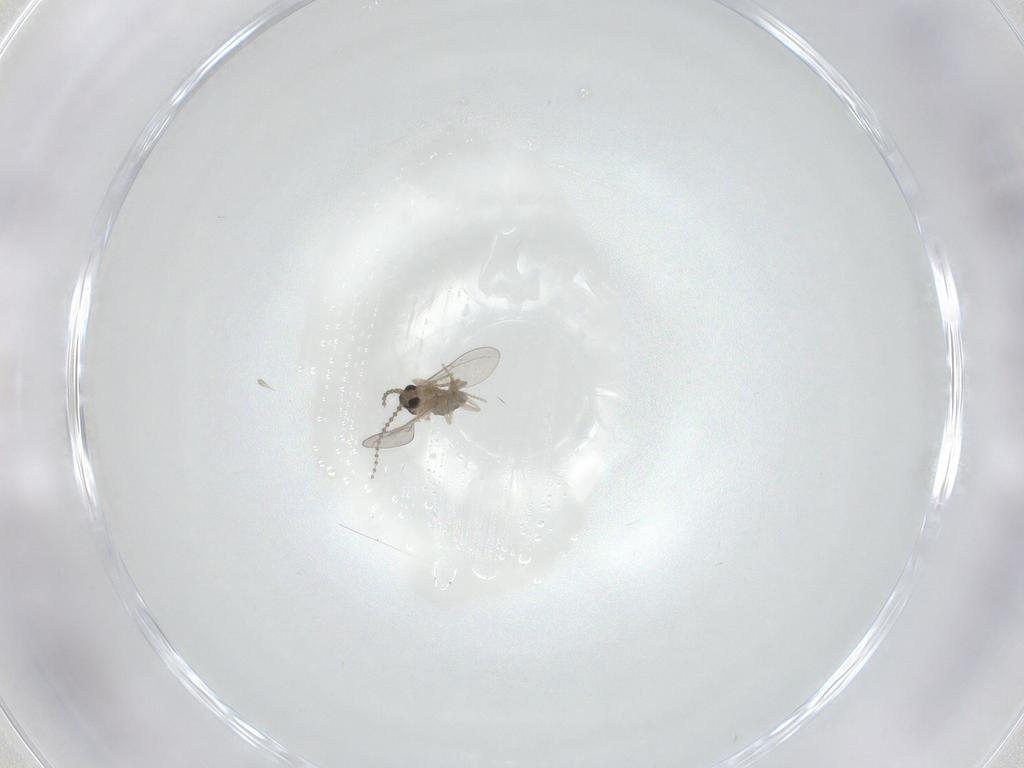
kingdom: Animalia
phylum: Arthropoda
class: Insecta
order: Diptera
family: Cecidomyiidae
